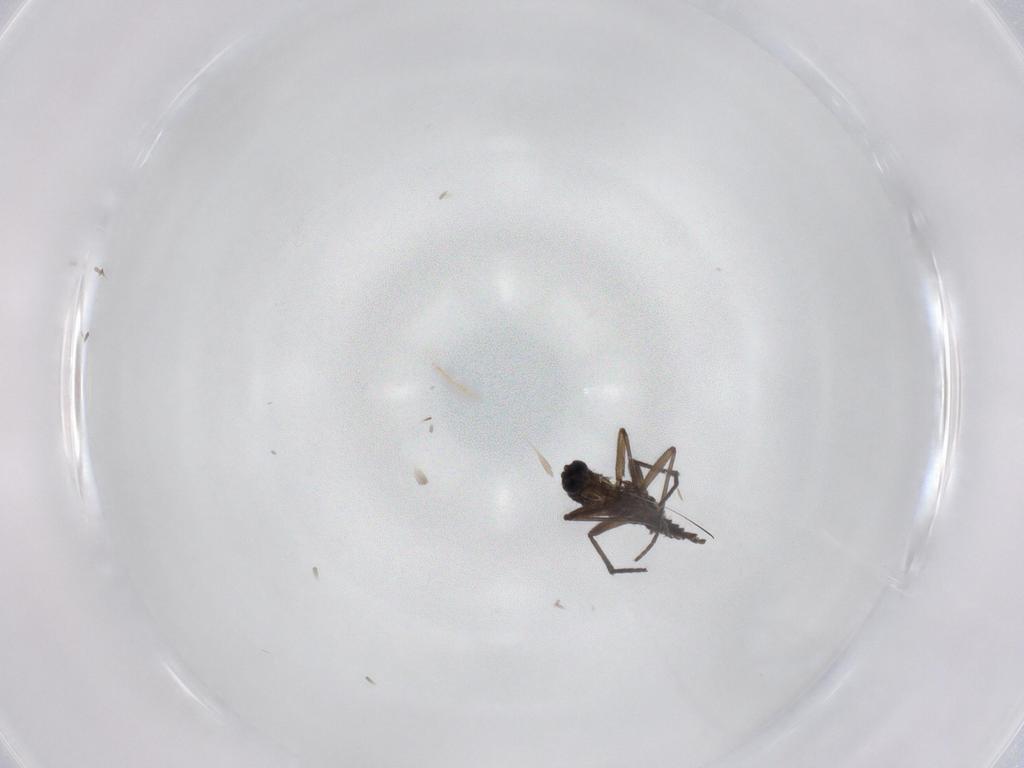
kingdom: Animalia
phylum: Arthropoda
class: Insecta
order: Diptera
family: Sciaridae
